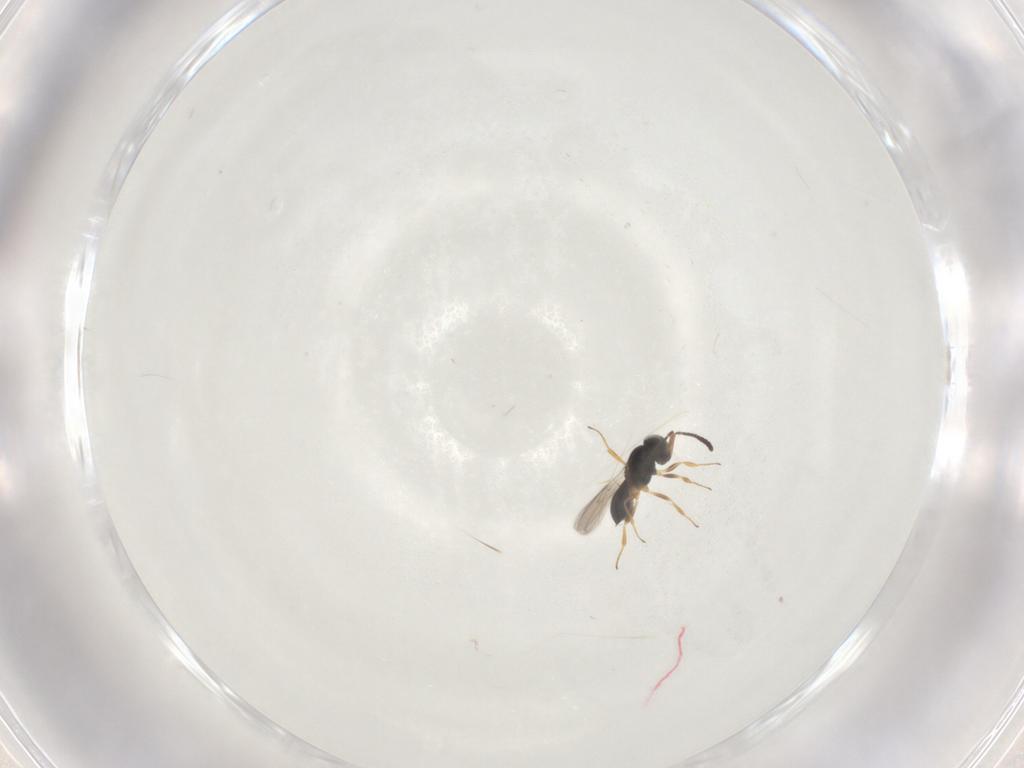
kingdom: Animalia
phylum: Arthropoda
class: Insecta
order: Hymenoptera
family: Scelionidae
